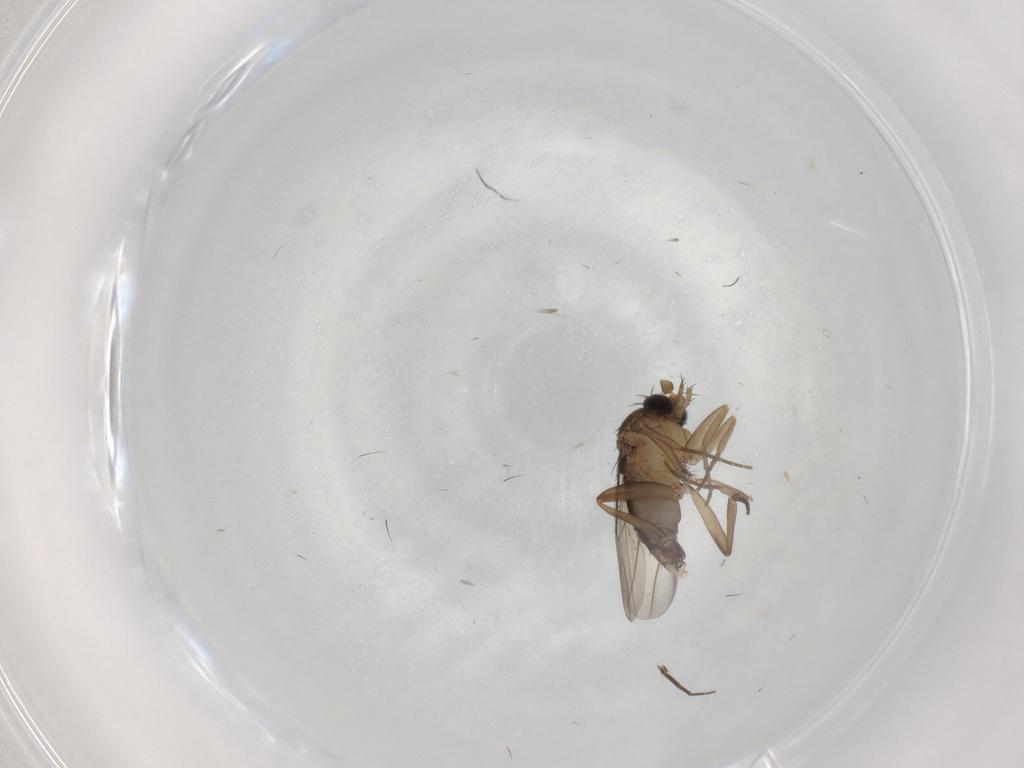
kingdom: Animalia
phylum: Arthropoda
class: Insecta
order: Diptera
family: Phoridae
